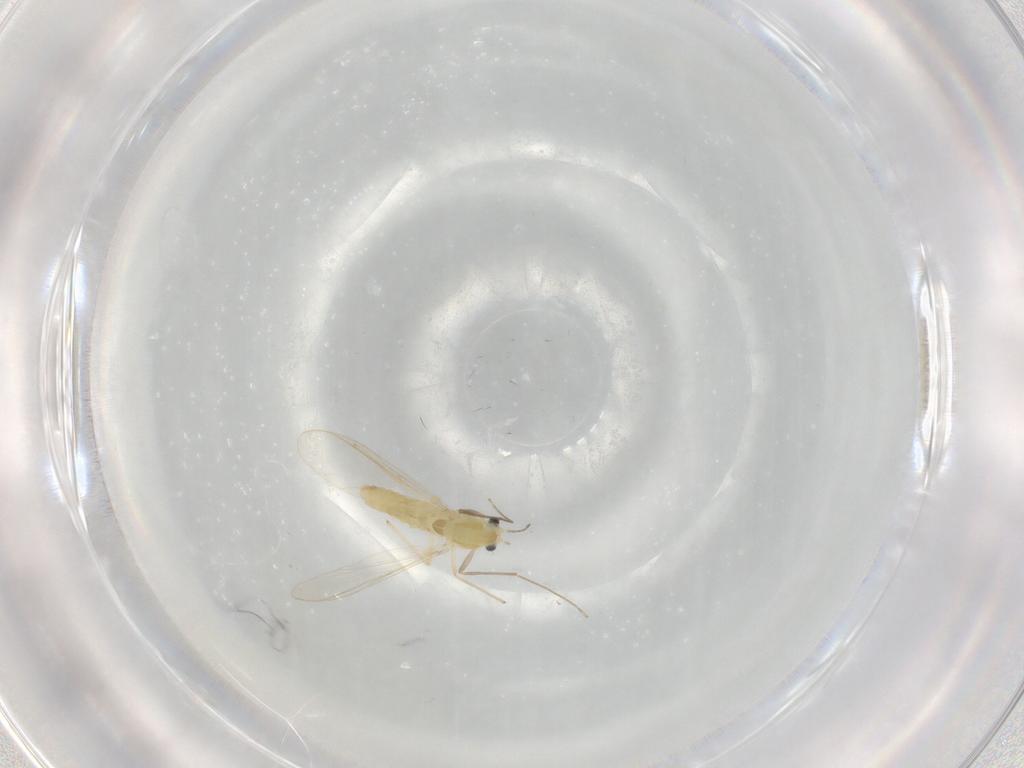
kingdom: Animalia
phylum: Arthropoda
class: Insecta
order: Diptera
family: Chironomidae
